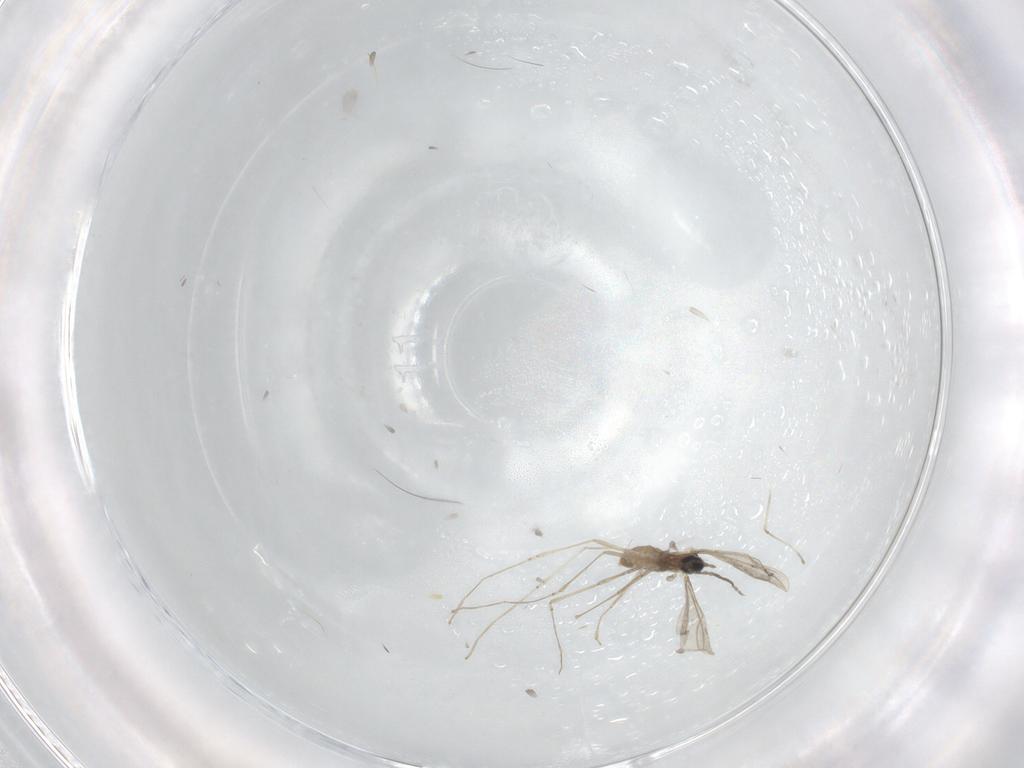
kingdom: Animalia
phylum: Arthropoda
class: Insecta
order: Diptera
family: Cecidomyiidae
